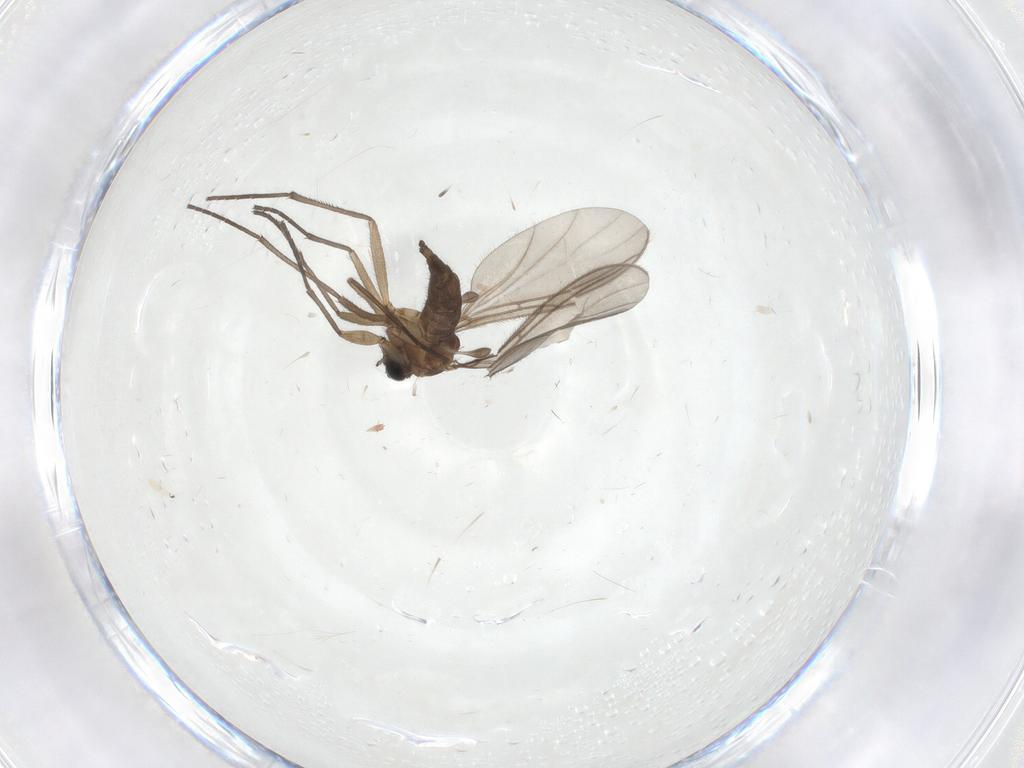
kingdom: Animalia
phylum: Arthropoda
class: Insecta
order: Diptera
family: Sciaridae
